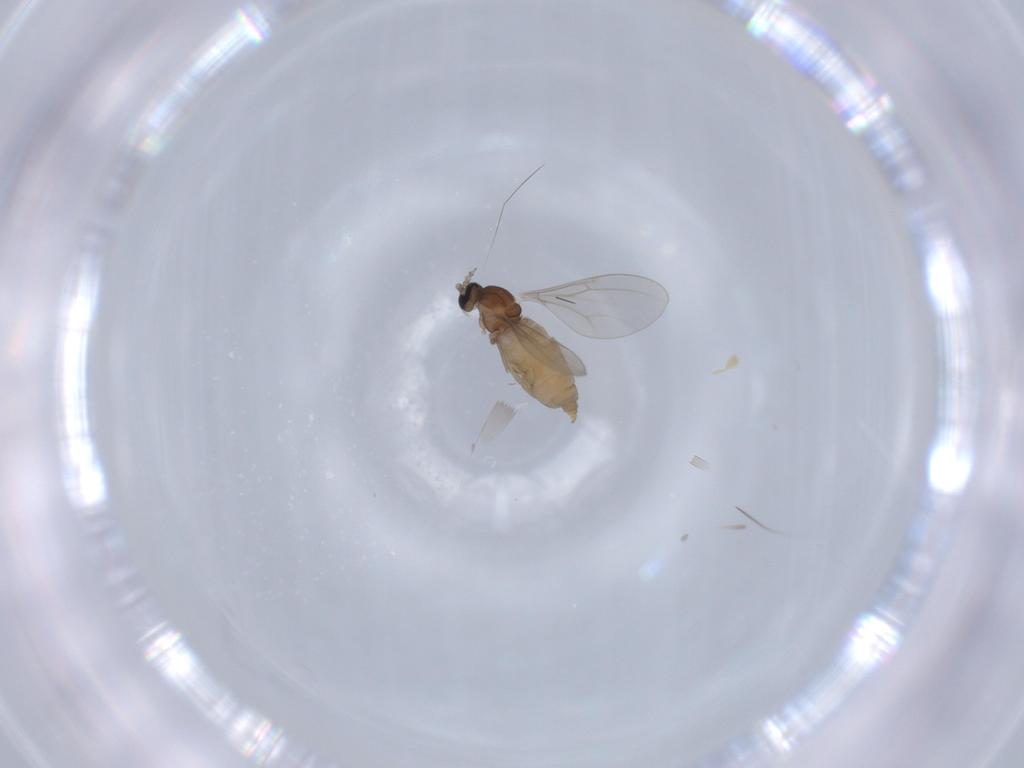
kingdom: Animalia
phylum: Arthropoda
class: Insecta
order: Diptera
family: Cecidomyiidae
